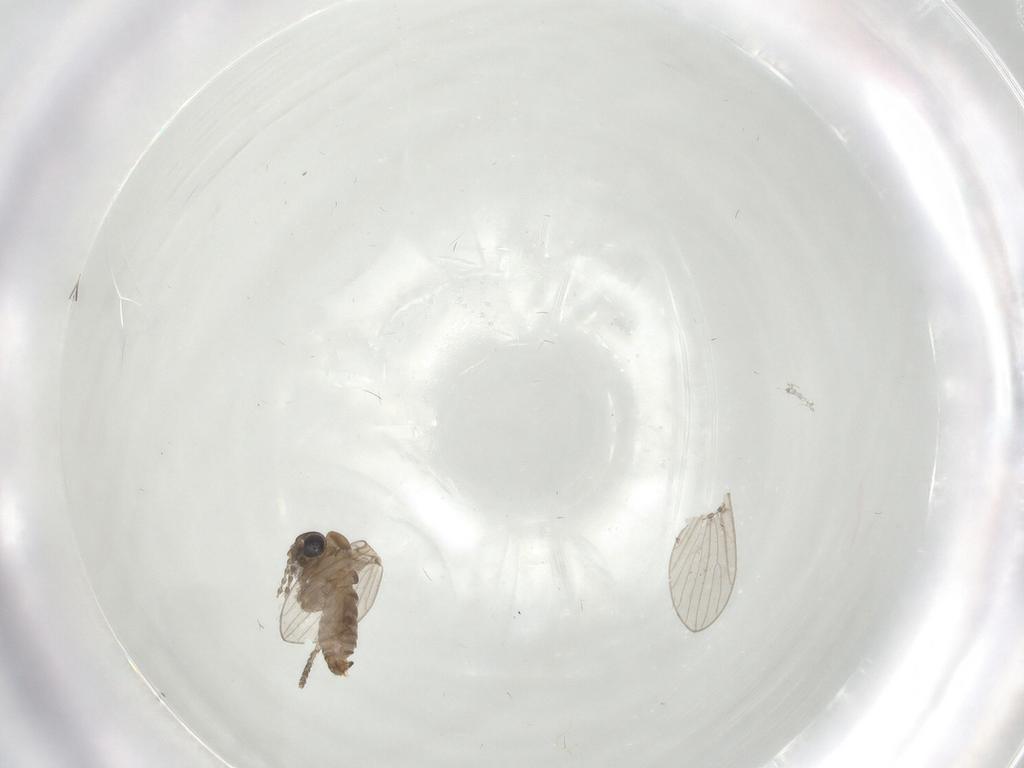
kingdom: Animalia
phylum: Arthropoda
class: Insecta
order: Diptera
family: Psychodidae
